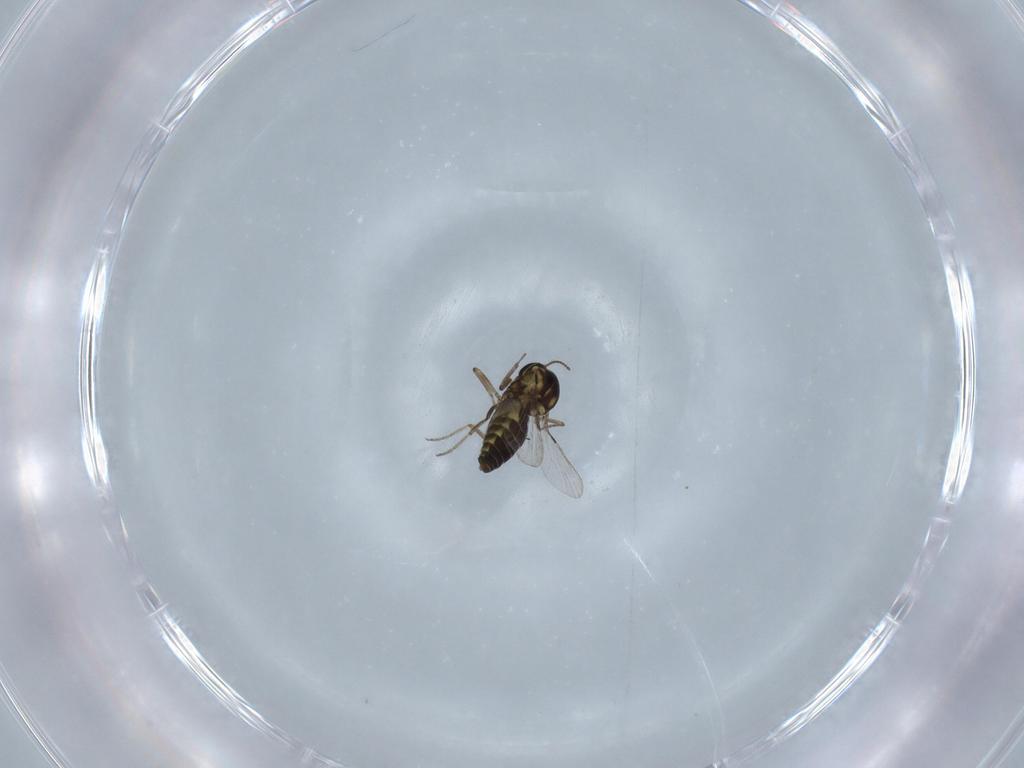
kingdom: Animalia
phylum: Arthropoda
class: Insecta
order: Diptera
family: Ceratopogonidae
